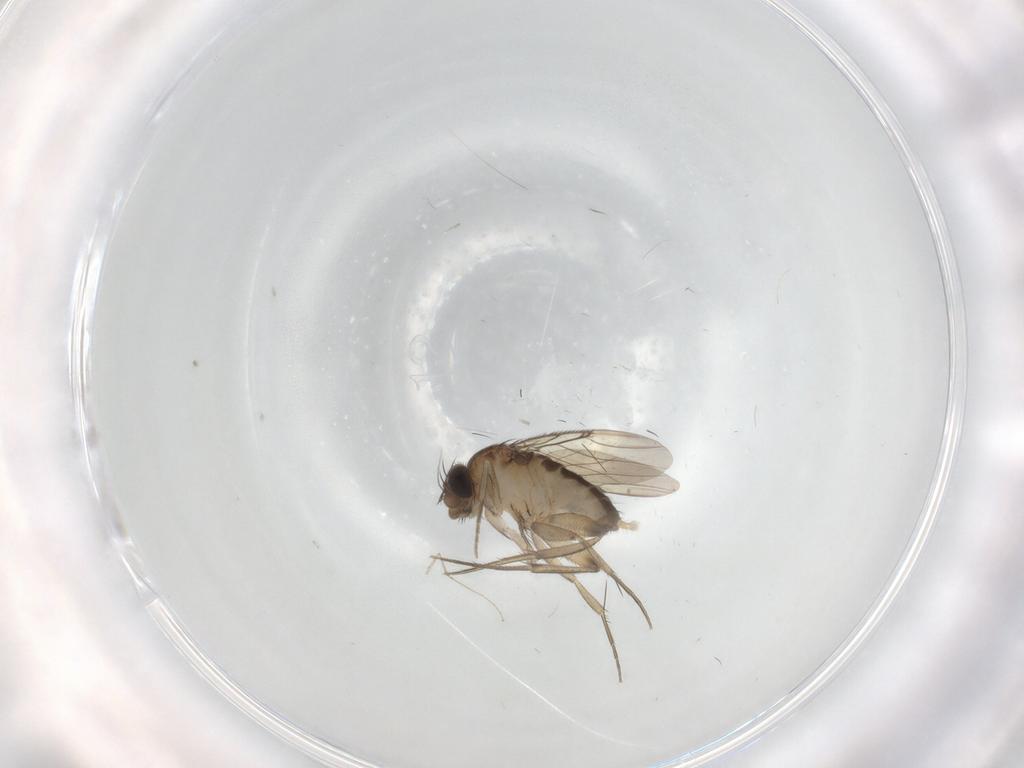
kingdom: Animalia
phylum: Arthropoda
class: Insecta
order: Diptera
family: Phoridae
